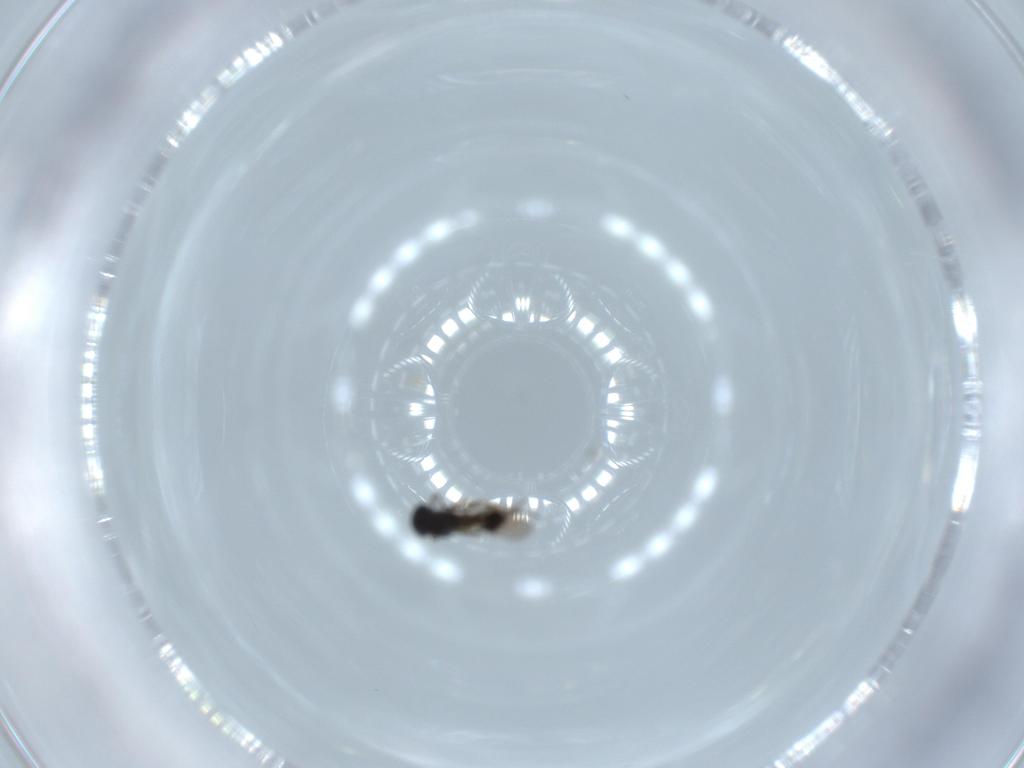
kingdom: Animalia
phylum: Arthropoda
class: Insecta
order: Hymenoptera
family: Platygastridae
